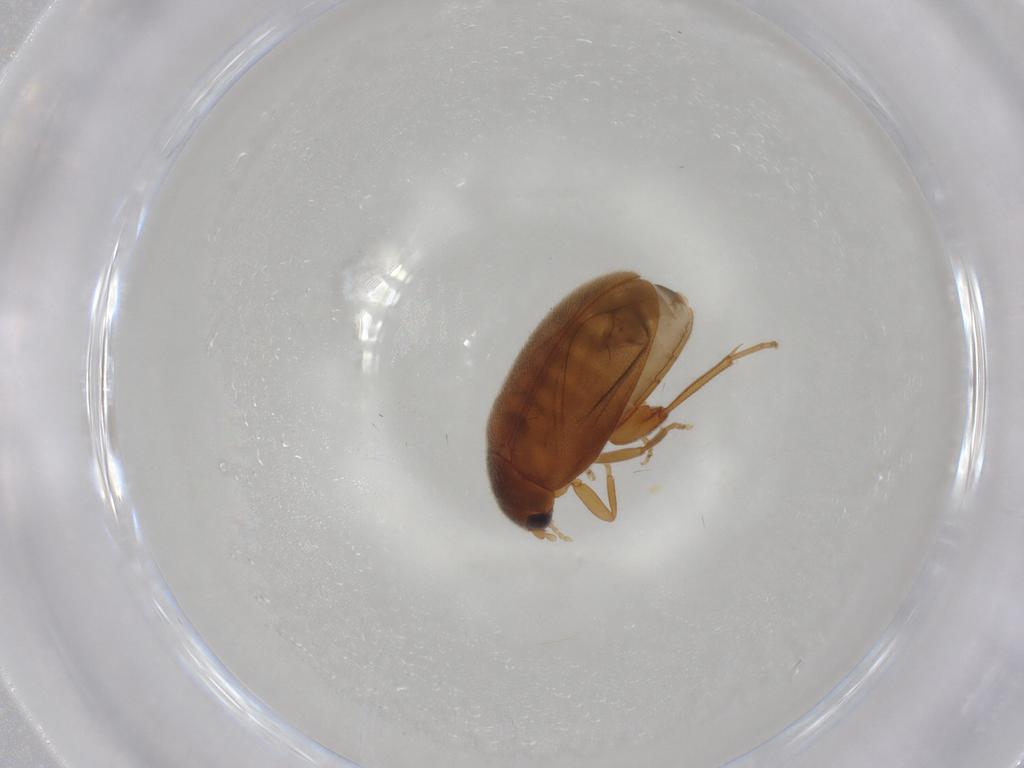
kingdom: Animalia
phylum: Arthropoda
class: Insecta
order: Coleoptera
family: Scirtidae
